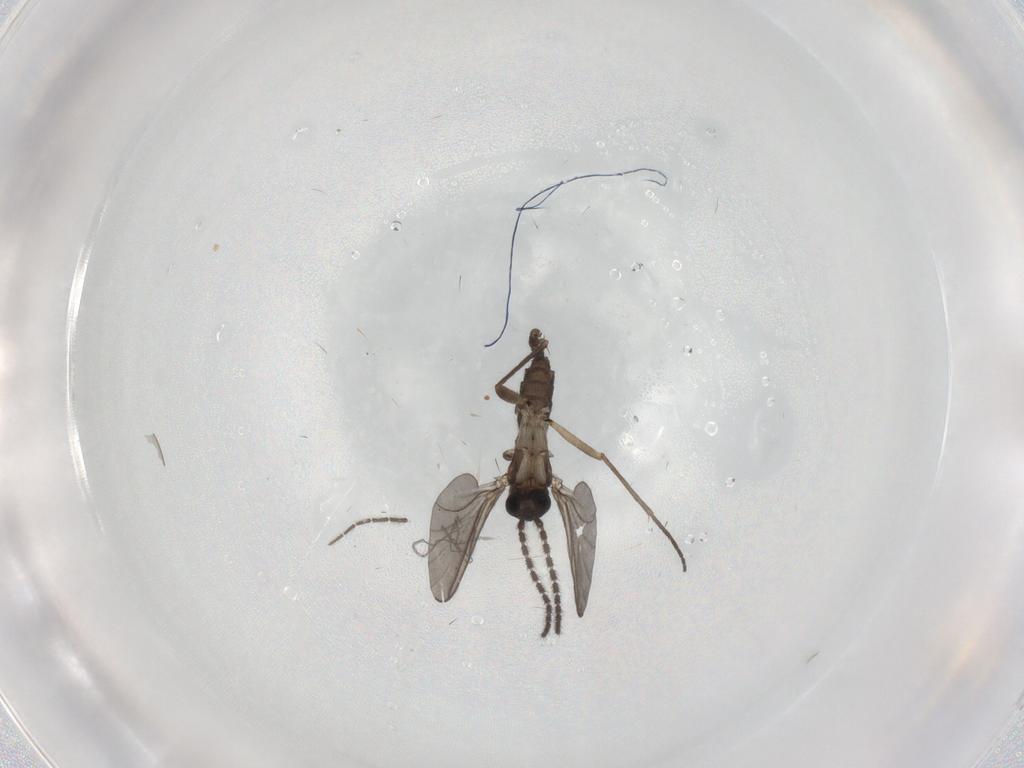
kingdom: Animalia
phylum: Arthropoda
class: Insecta
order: Diptera
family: Sciaridae
